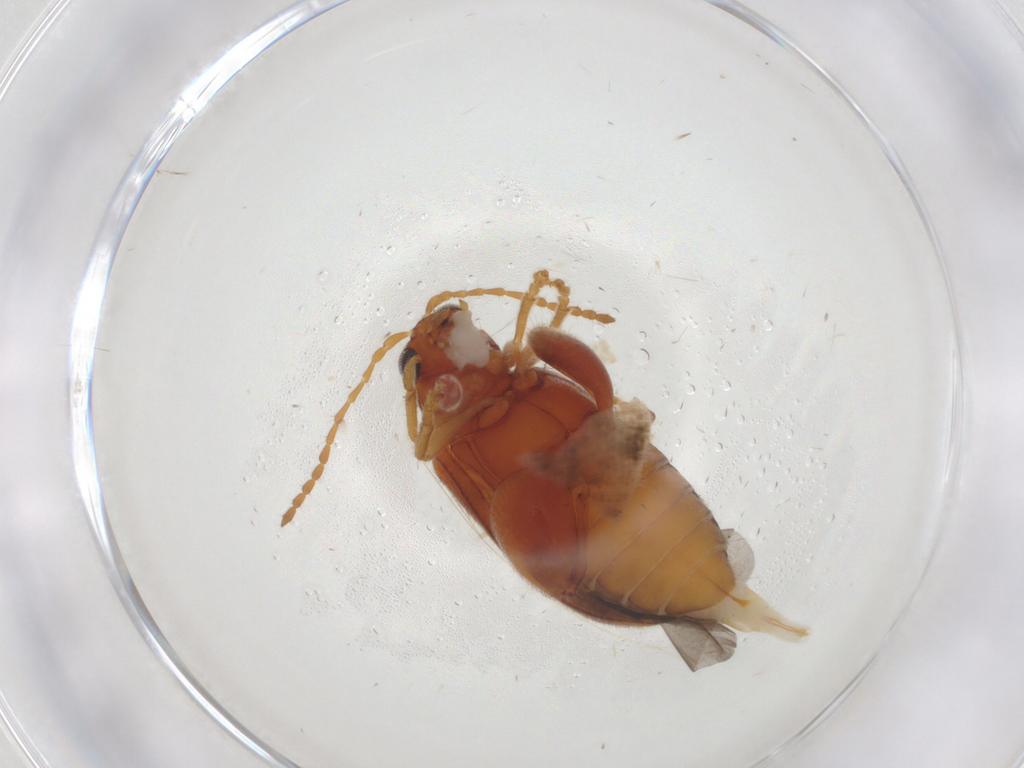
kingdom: Animalia
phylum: Arthropoda
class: Insecta
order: Coleoptera
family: Chrysomelidae
